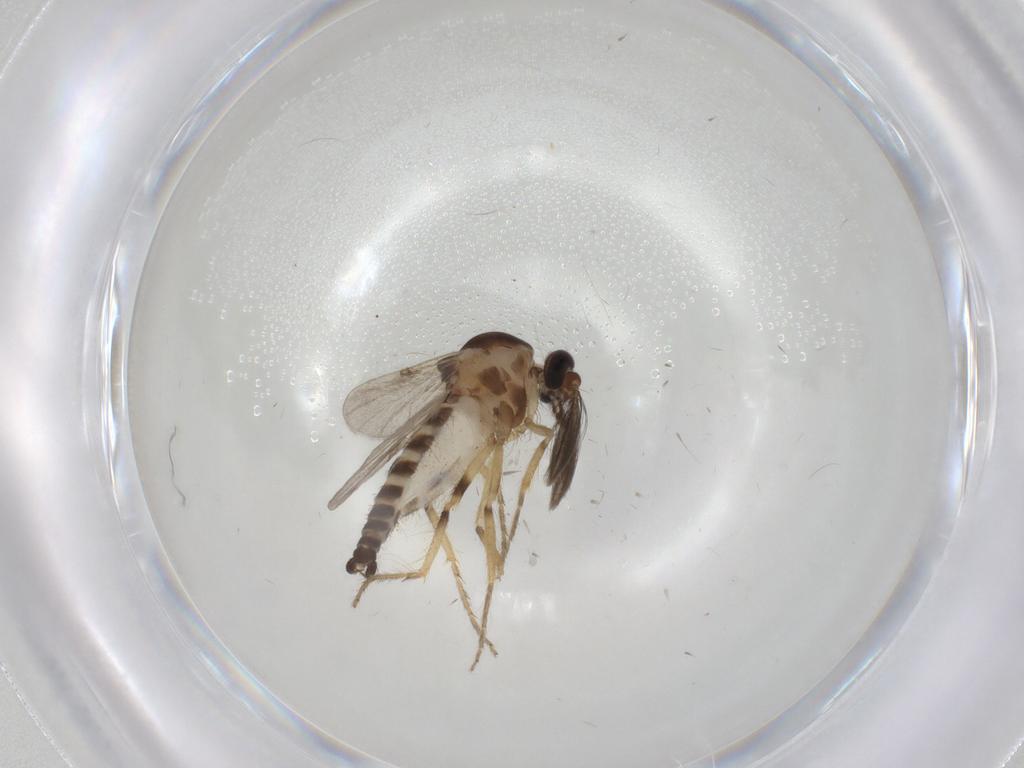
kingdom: Animalia
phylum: Arthropoda
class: Insecta
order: Diptera
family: Ceratopogonidae
